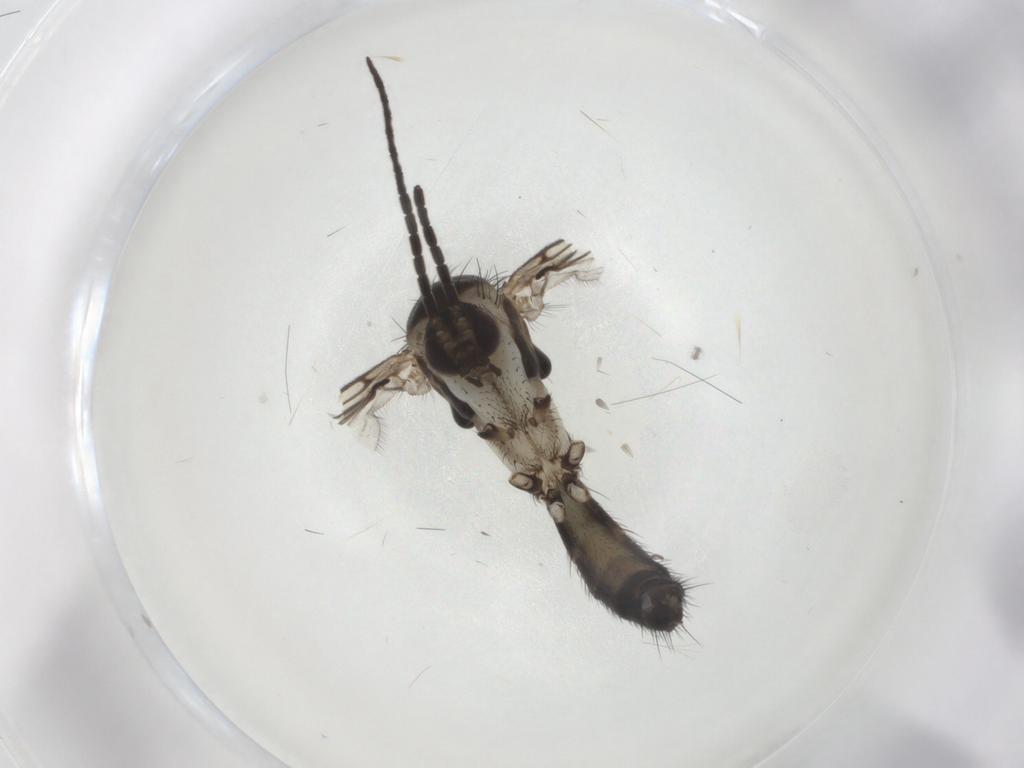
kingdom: Animalia
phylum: Arthropoda
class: Insecta
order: Diptera
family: Mycetophilidae
